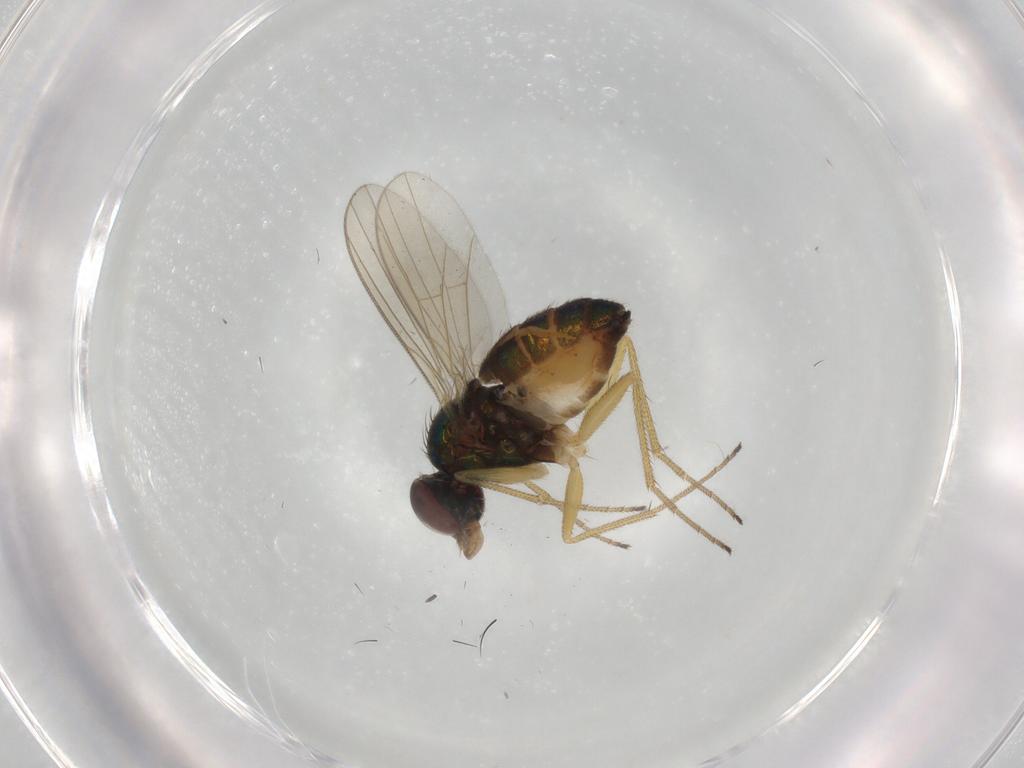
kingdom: Animalia
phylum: Arthropoda
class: Insecta
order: Diptera
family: Dolichopodidae
